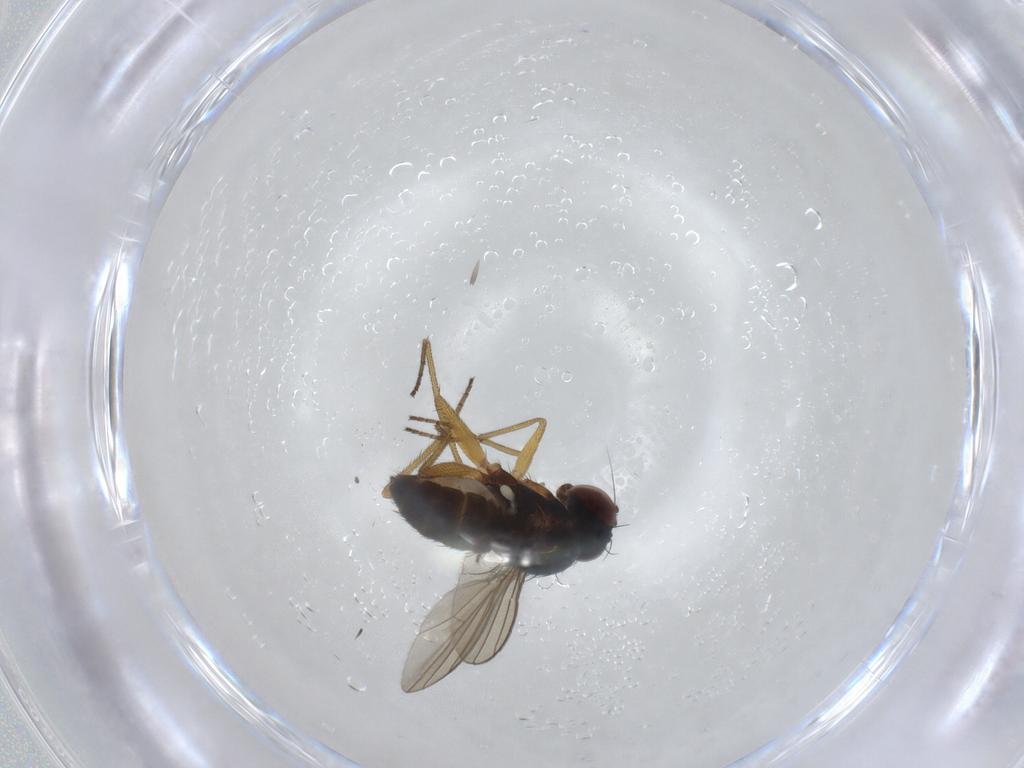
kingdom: Animalia
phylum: Arthropoda
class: Insecta
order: Diptera
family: Dolichopodidae
